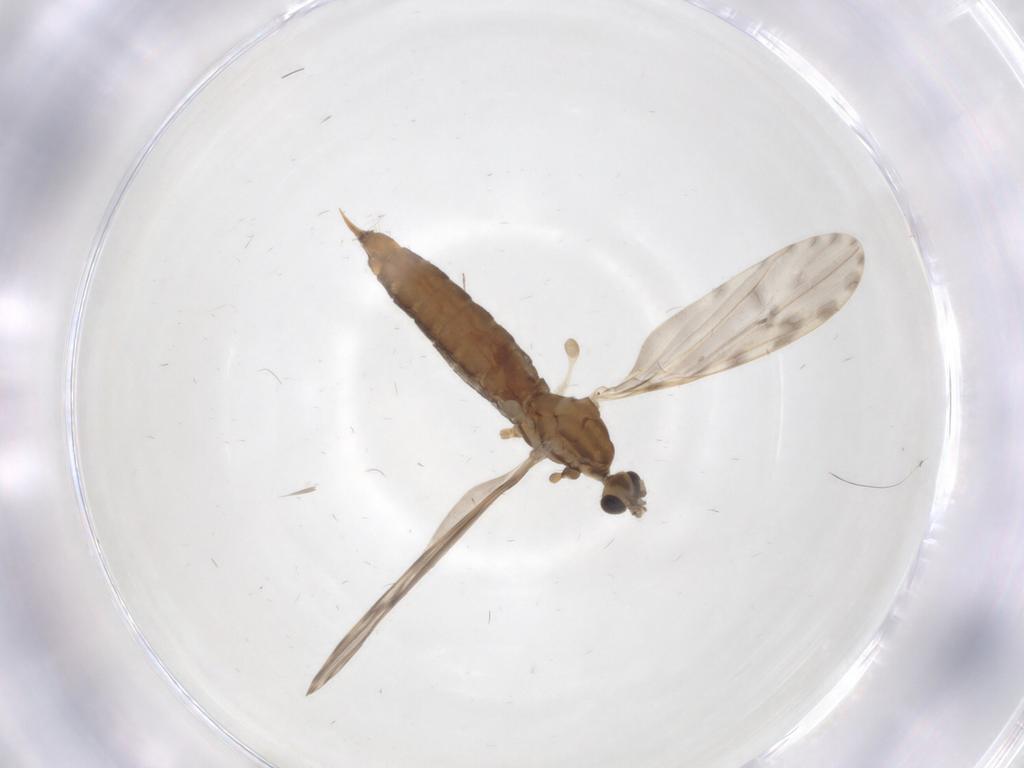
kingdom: Animalia
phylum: Arthropoda
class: Insecta
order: Diptera
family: Limoniidae
